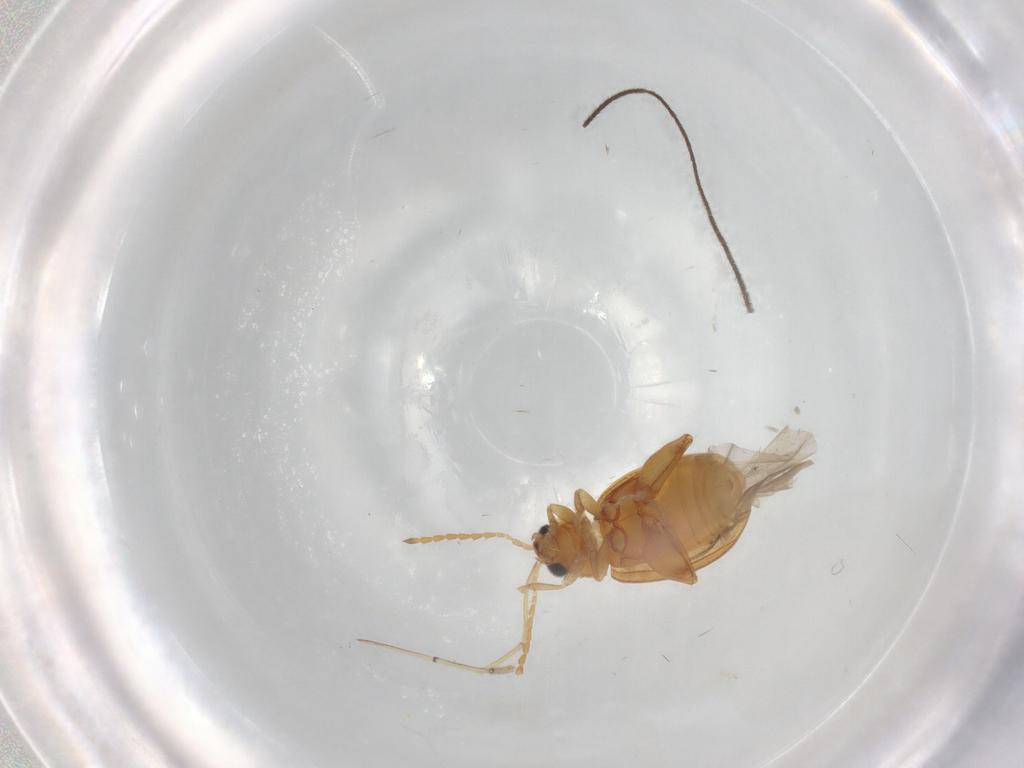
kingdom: Animalia
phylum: Arthropoda
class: Insecta
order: Coleoptera
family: Chrysomelidae
